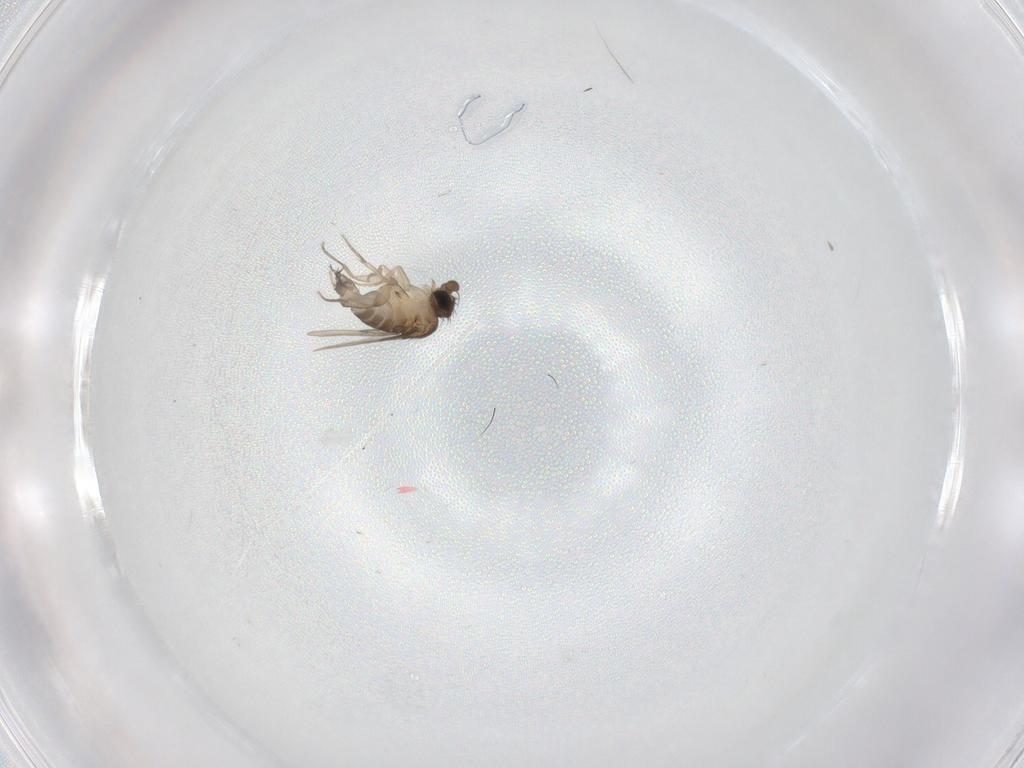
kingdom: Animalia
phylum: Arthropoda
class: Insecta
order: Diptera
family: Phoridae
